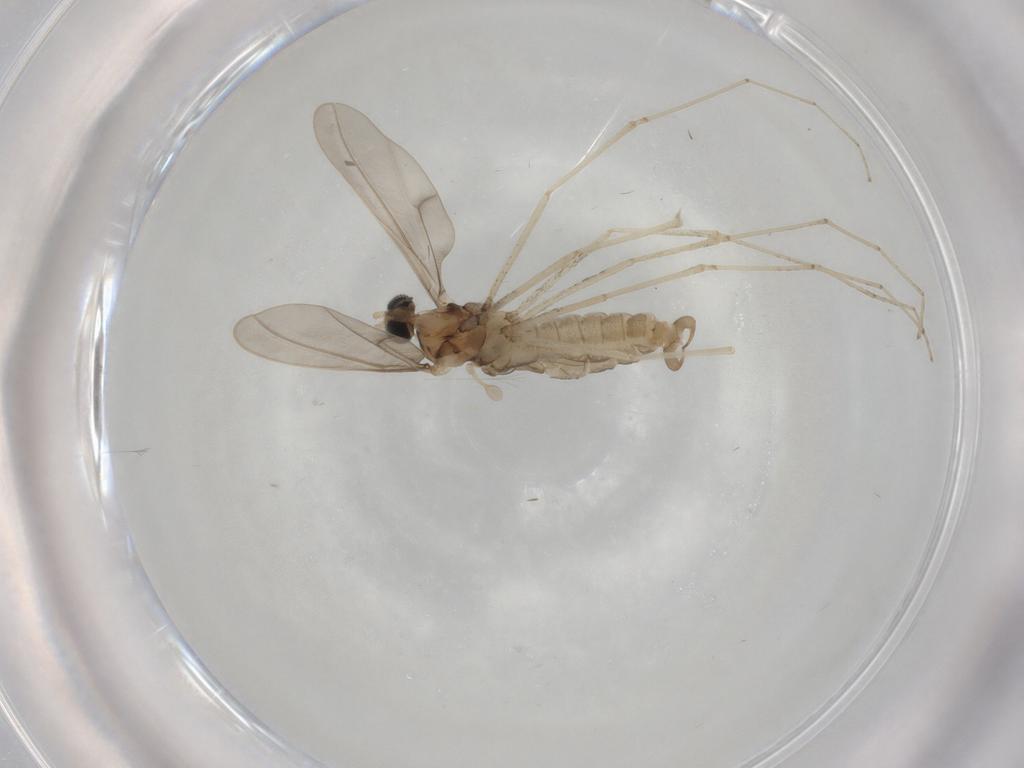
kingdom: Animalia
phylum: Arthropoda
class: Insecta
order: Diptera
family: Cecidomyiidae
